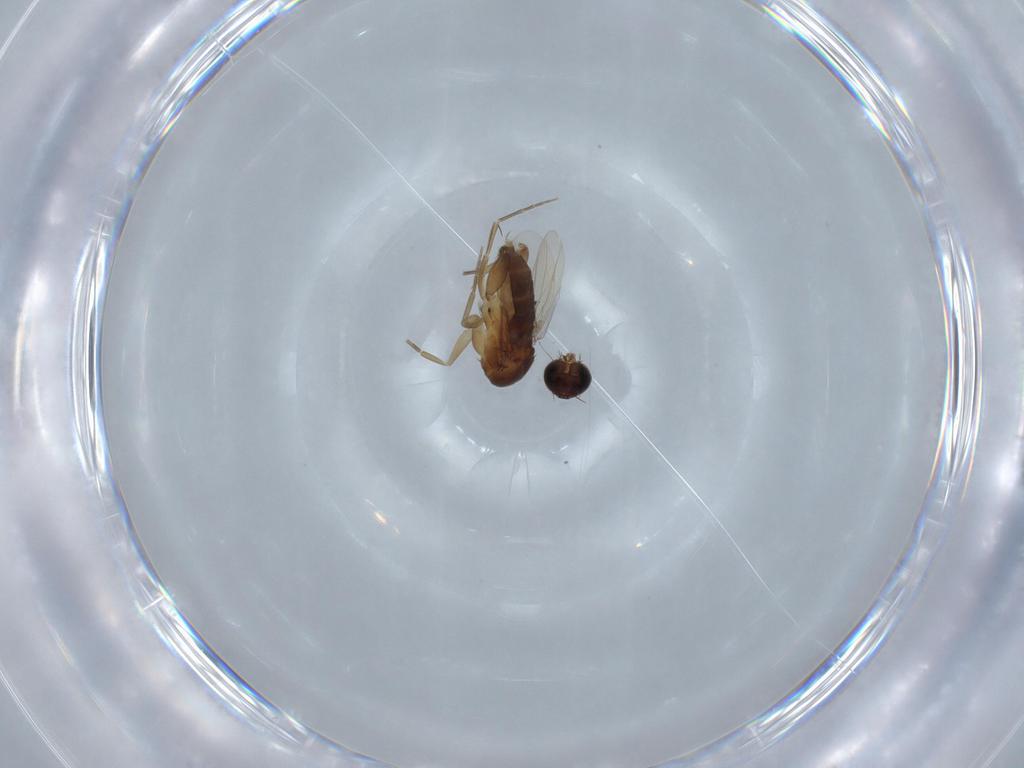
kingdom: Animalia
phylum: Arthropoda
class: Insecta
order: Diptera
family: Phoridae
